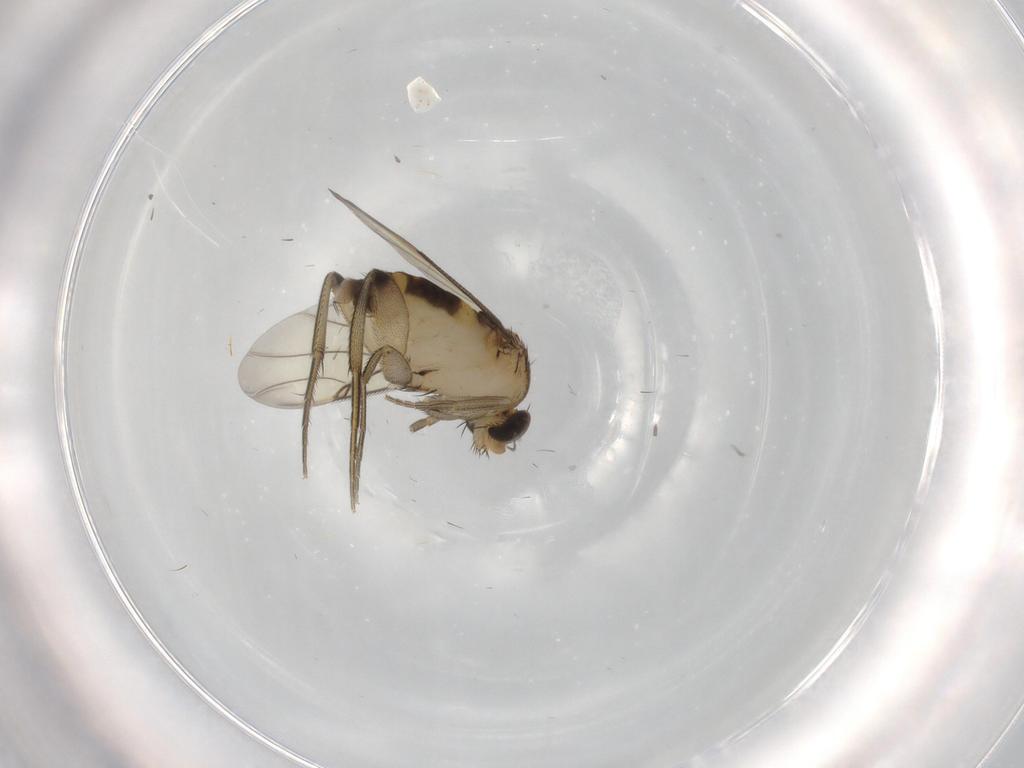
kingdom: Animalia
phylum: Arthropoda
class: Insecta
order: Diptera
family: Phoridae
